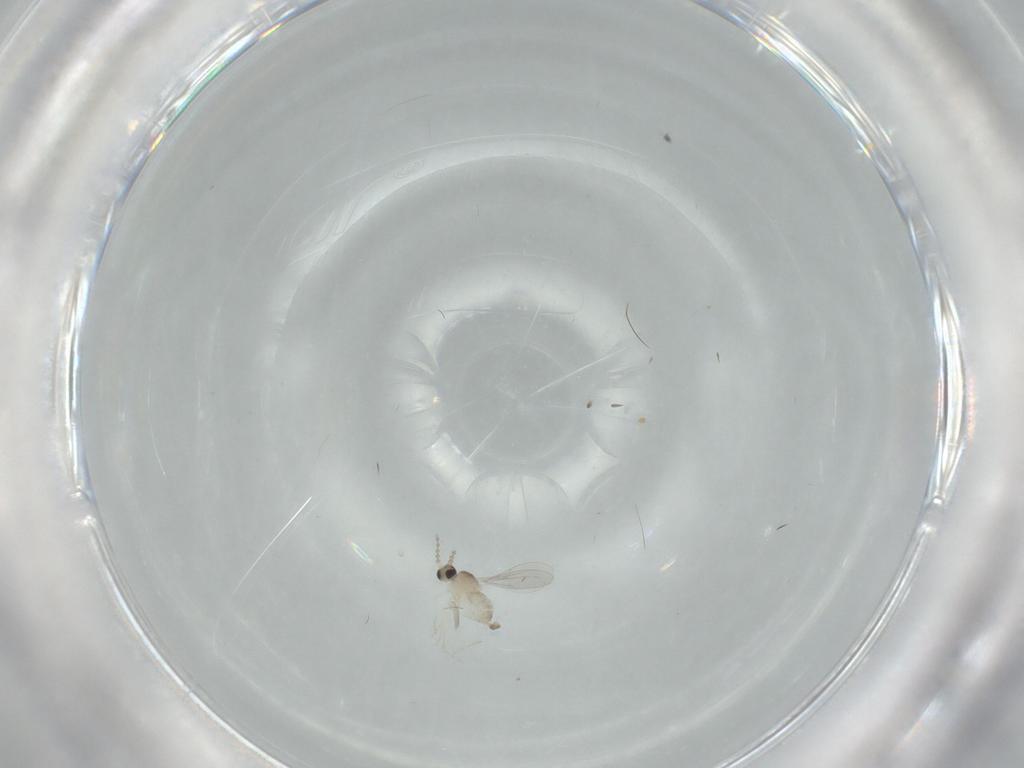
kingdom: Animalia
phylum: Arthropoda
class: Insecta
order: Diptera
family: Cecidomyiidae
